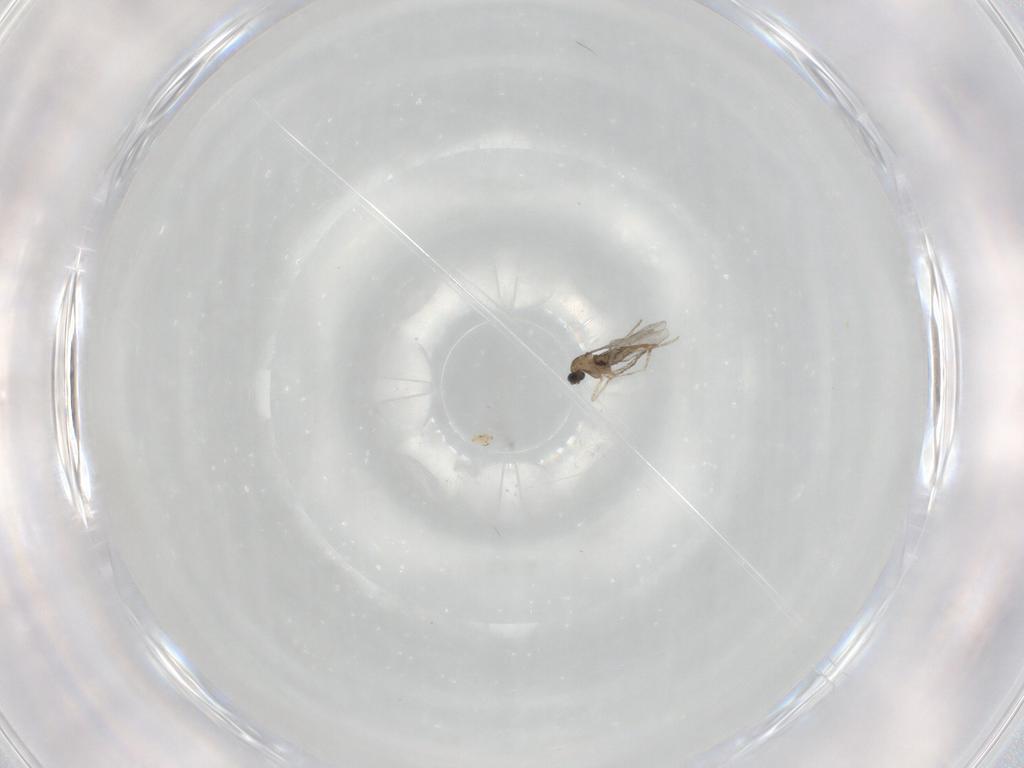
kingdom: Animalia
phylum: Arthropoda
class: Insecta
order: Diptera
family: Cecidomyiidae
